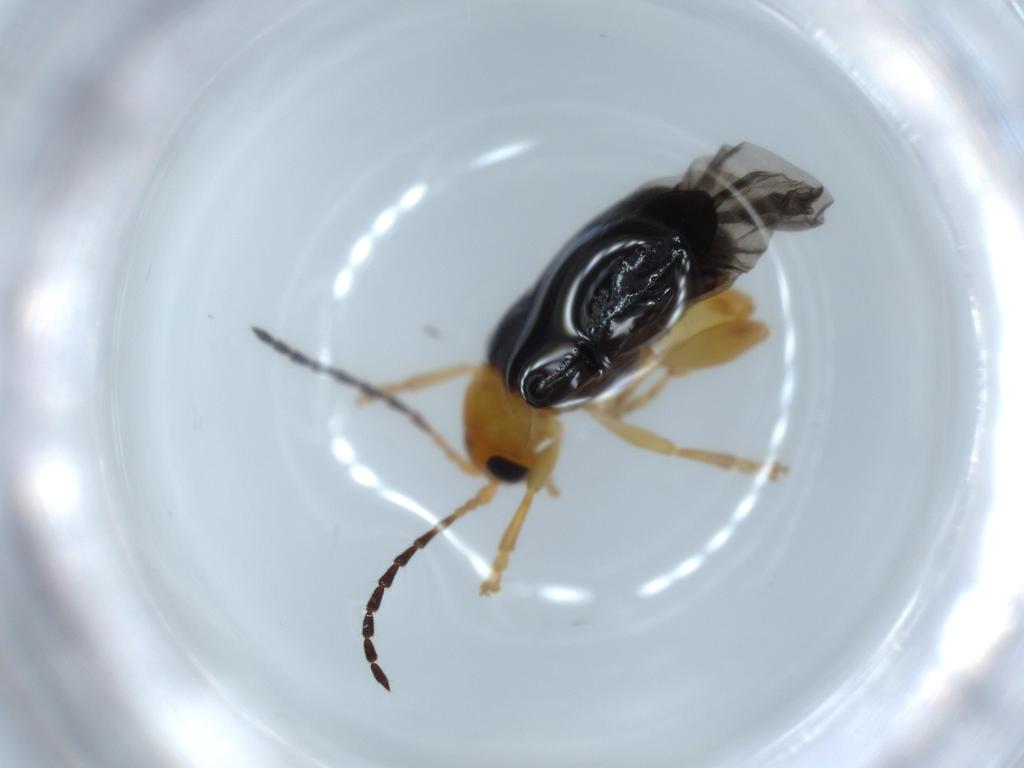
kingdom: Animalia
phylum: Arthropoda
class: Insecta
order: Coleoptera
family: Chrysomelidae
